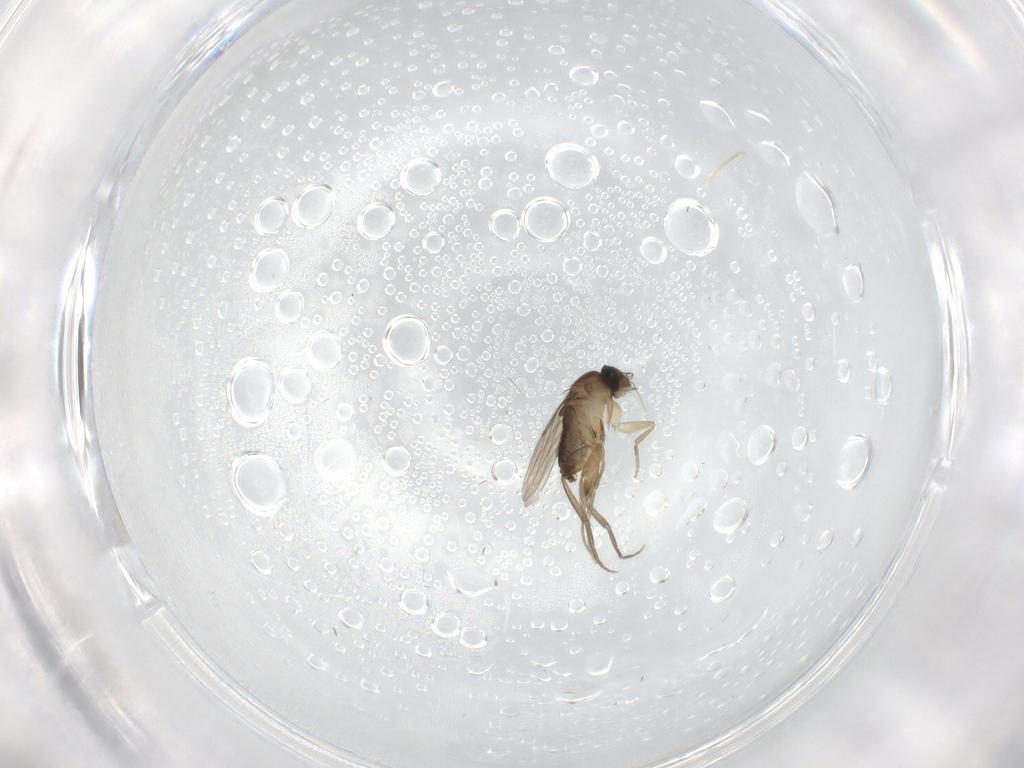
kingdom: Animalia
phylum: Arthropoda
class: Insecta
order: Diptera
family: Cecidomyiidae
